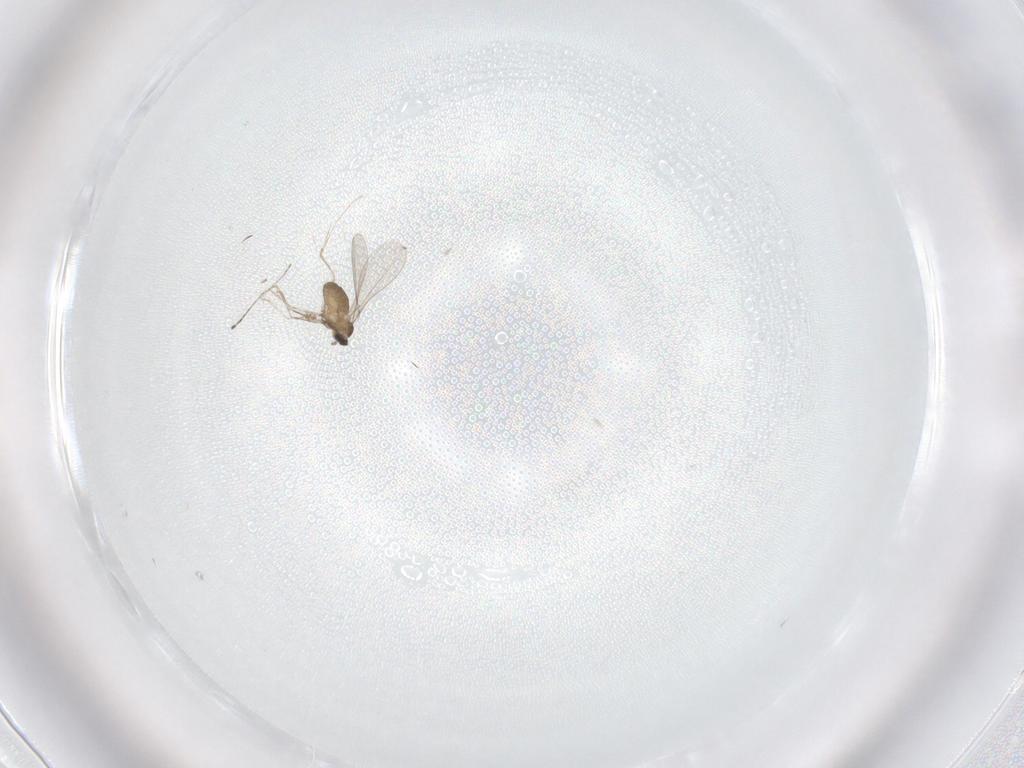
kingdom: Animalia
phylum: Arthropoda
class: Insecta
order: Diptera
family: Cecidomyiidae
